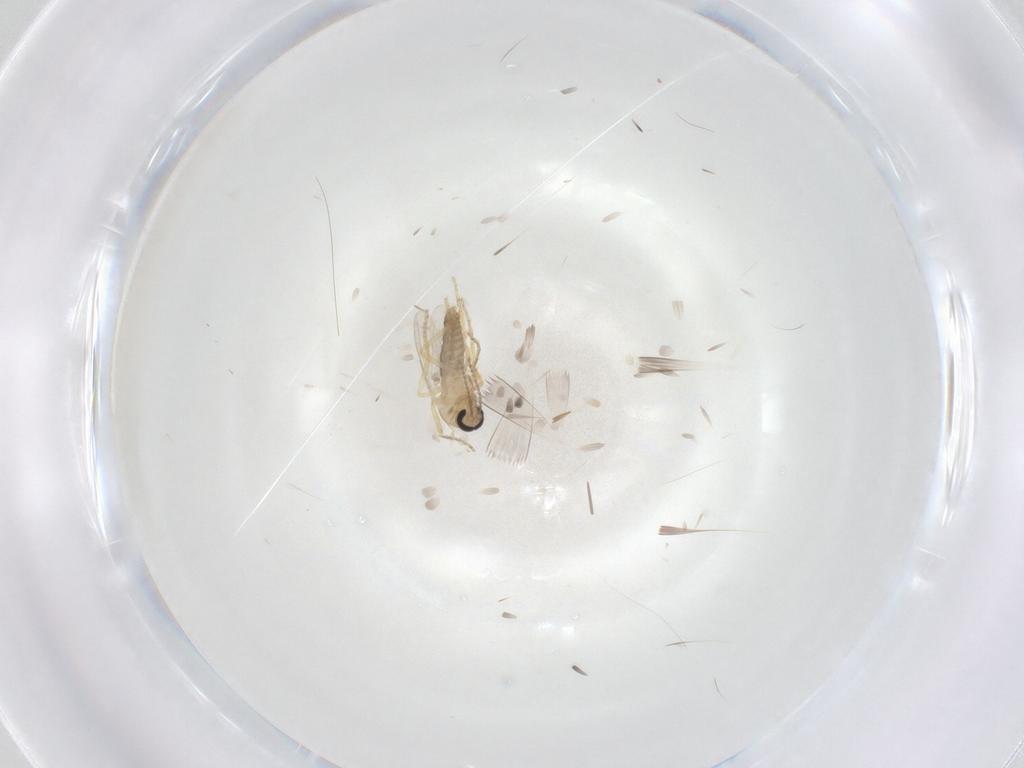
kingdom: Animalia
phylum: Arthropoda
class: Insecta
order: Diptera
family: Ceratopogonidae
